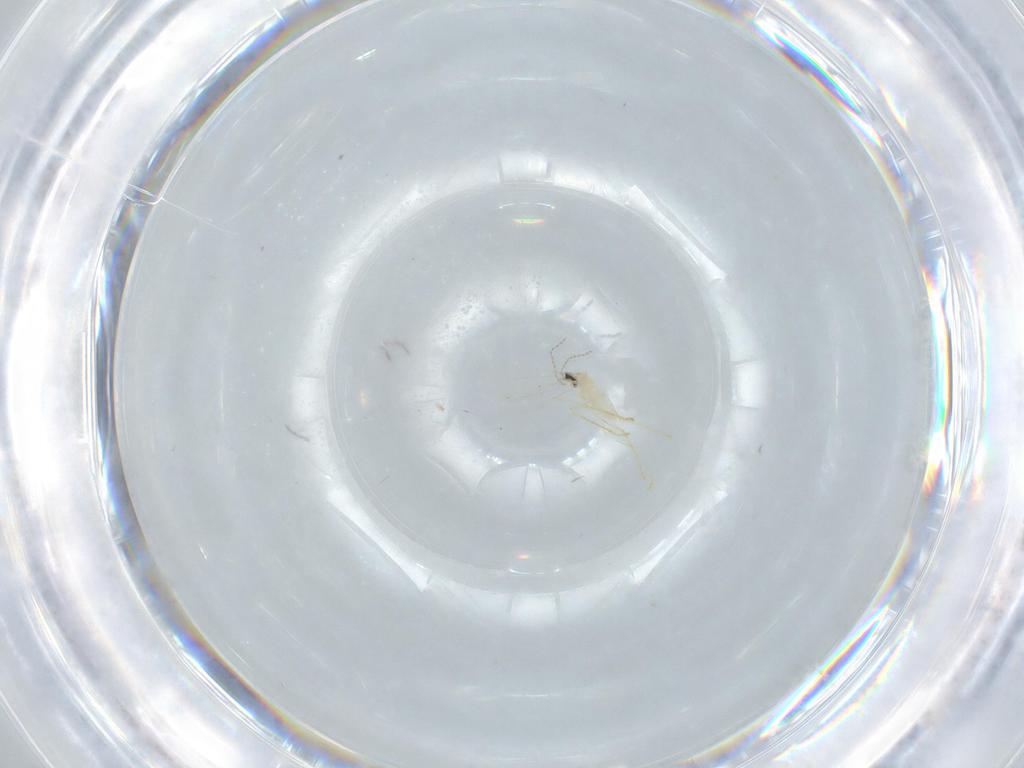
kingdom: Animalia
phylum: Arthropoda
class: Insecta
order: Diptera
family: Cecidomyiidae
